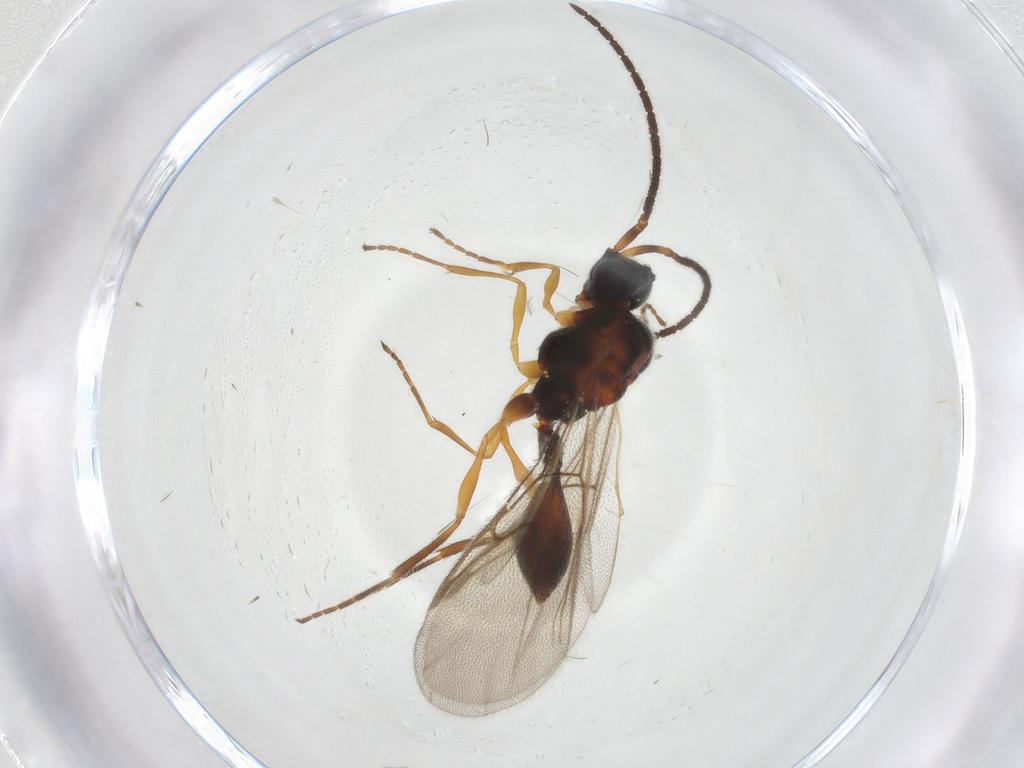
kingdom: Animalia
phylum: Arthropoda
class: Insecta
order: Hymenoptera
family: Diapriidae
